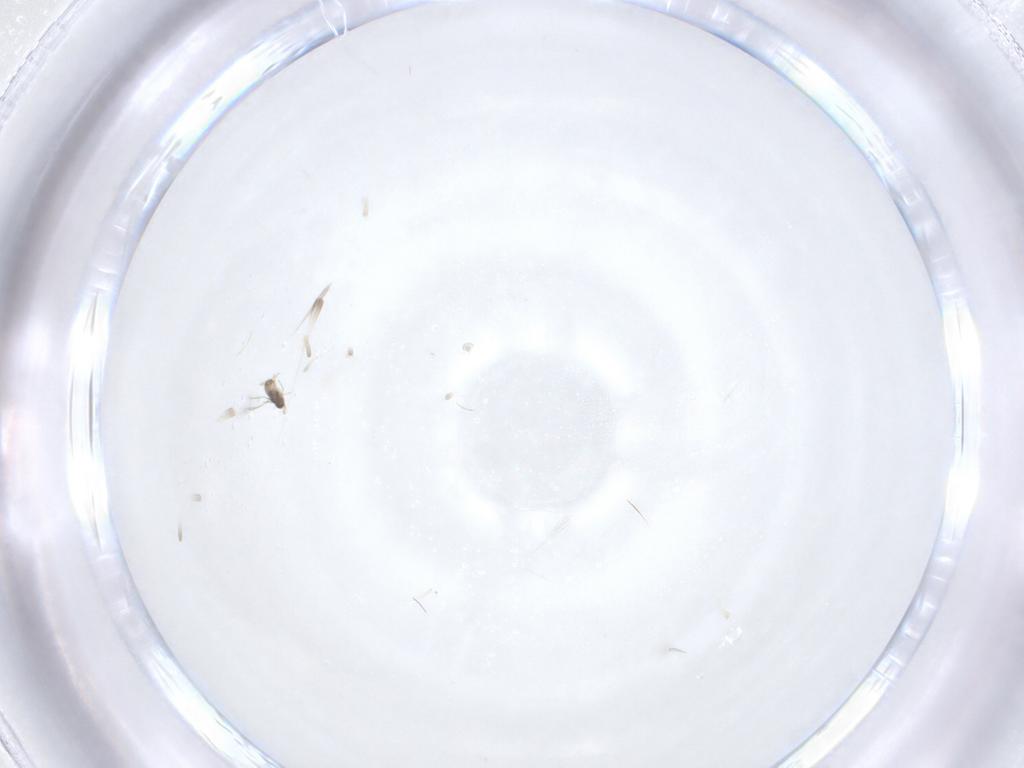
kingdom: Animalia
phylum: Arthropoda
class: Insecta
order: Hymenoptera
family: Mymaridae
